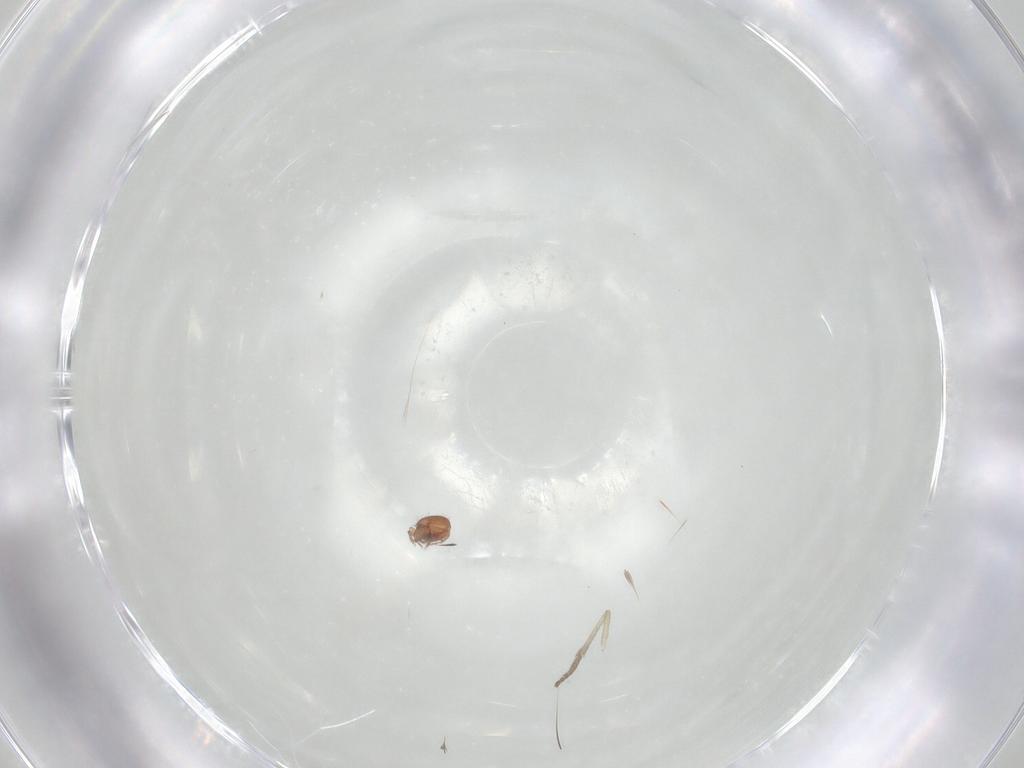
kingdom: Animalia
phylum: Arthropoda
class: Arachnida
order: Sarcoptiformes
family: Oribatulidae
